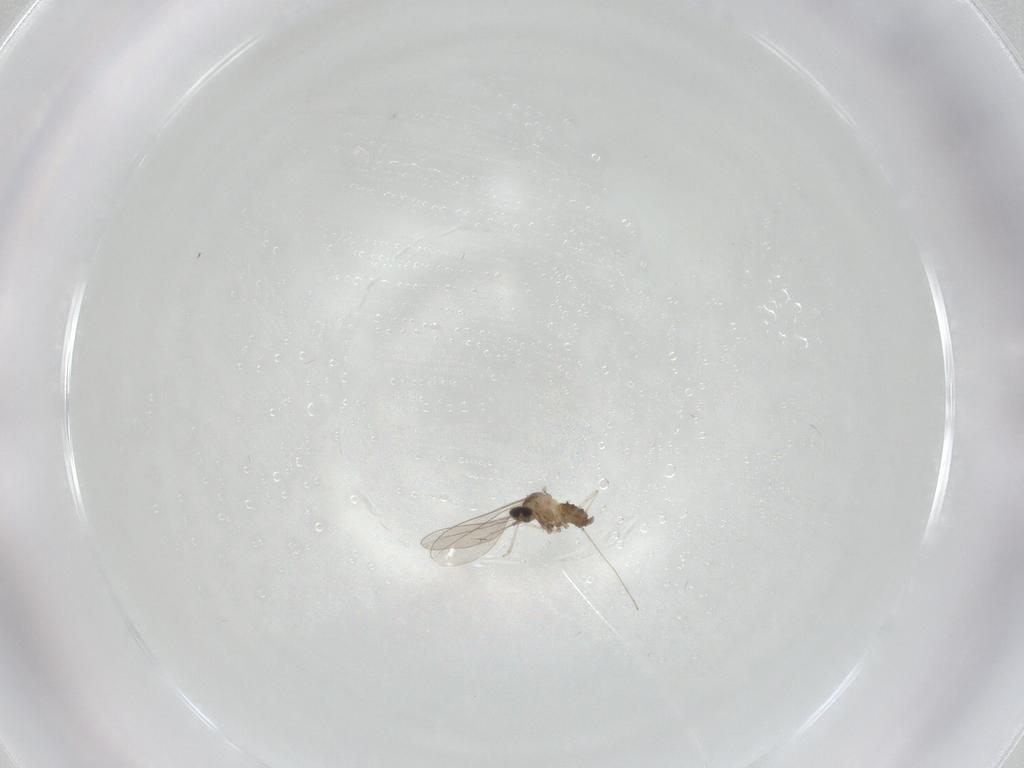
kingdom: Animalia
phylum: Arthropoda
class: Insecta
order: Diptera
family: Cecidomyiidae
